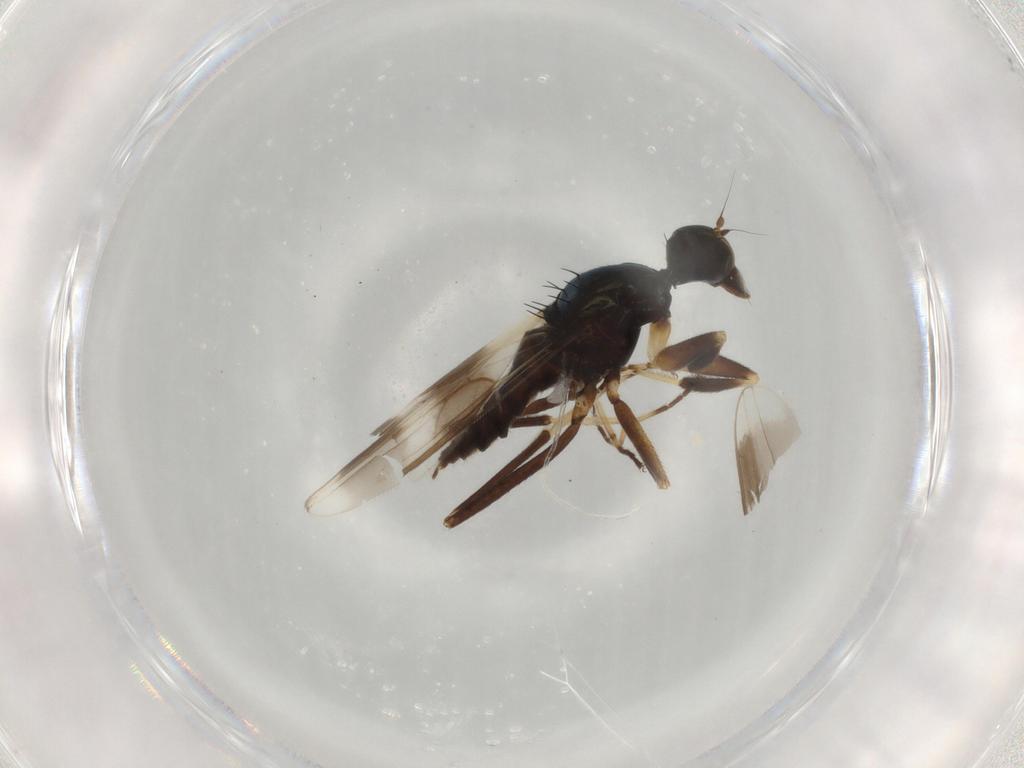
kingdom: Animalia
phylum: Arthropoda
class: Insecta
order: Diptera
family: Hybotidae
